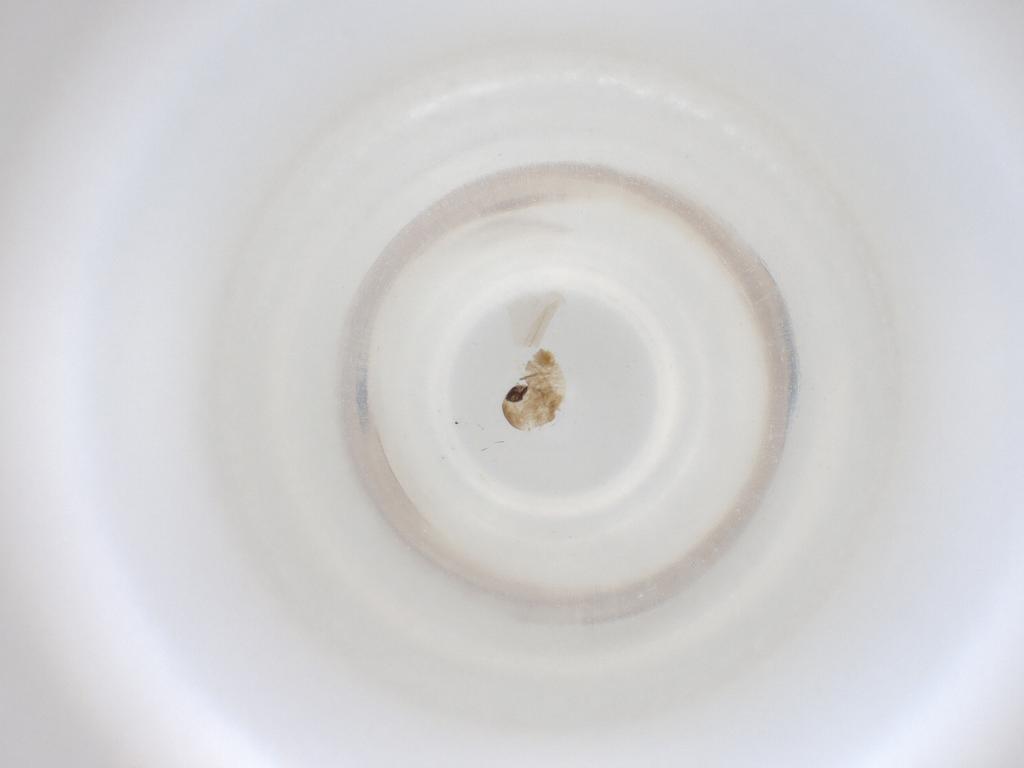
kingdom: Animalia
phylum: Arthropoda
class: Insecta
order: Diptera
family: Cecidomyiidae
